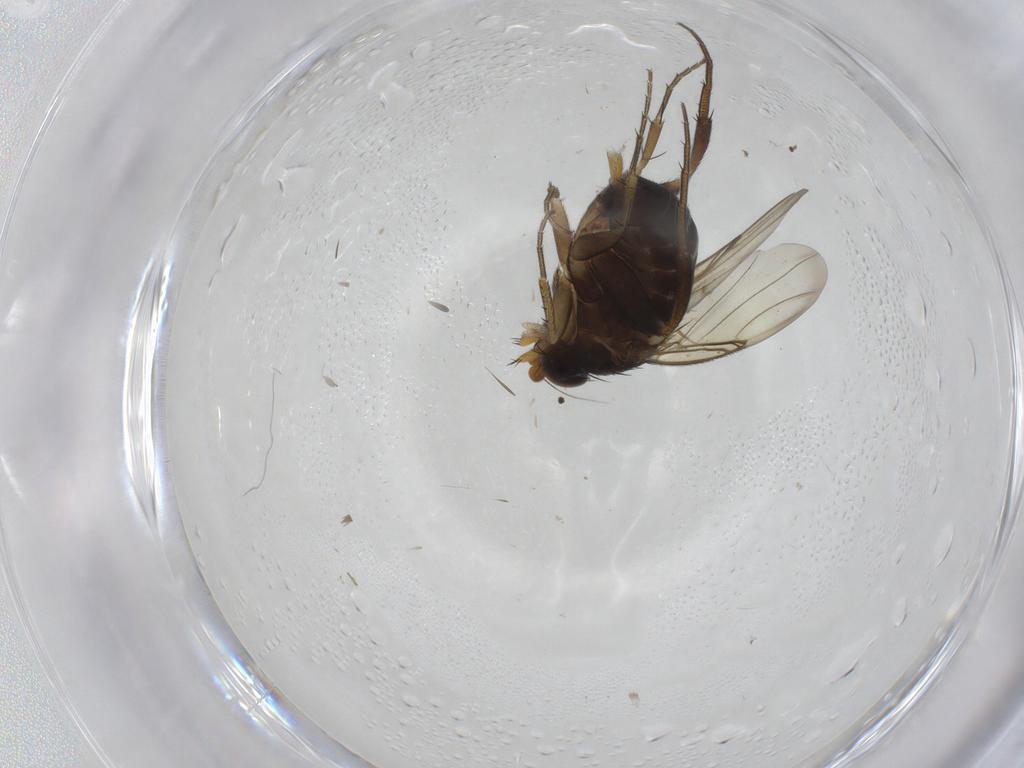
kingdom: Animalia
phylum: Arthropoda
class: Insecta
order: Diptera
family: Phoridae
